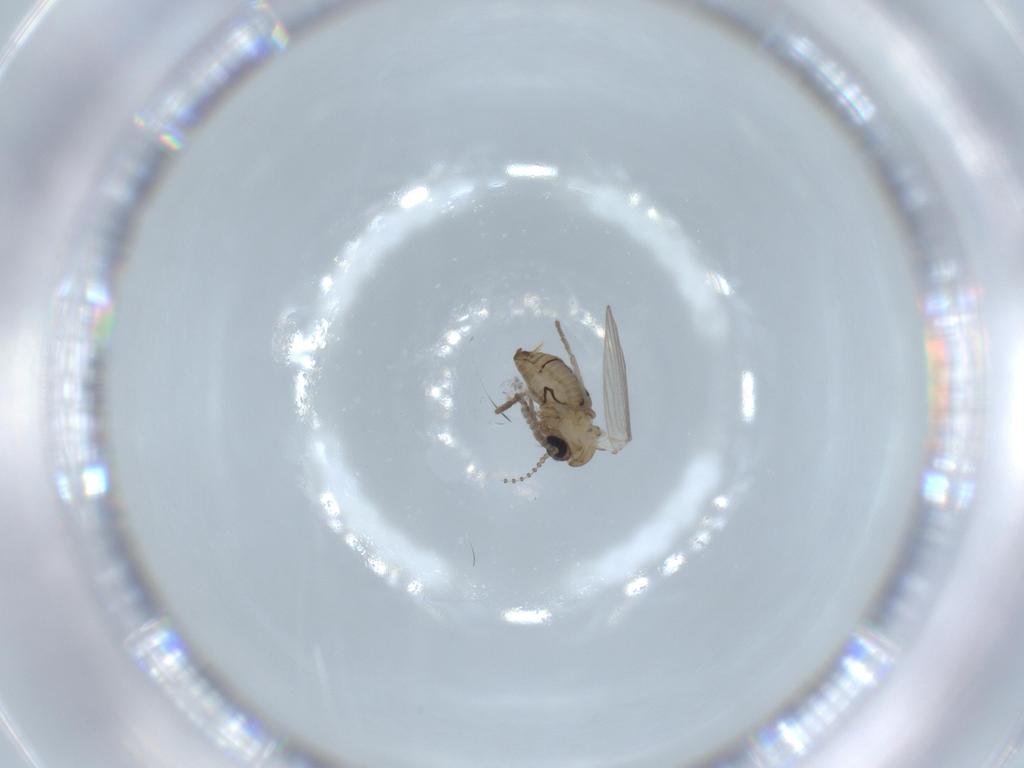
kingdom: Animalia
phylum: Arthropoda
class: Insecta
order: Diptera
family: Psychodidae
